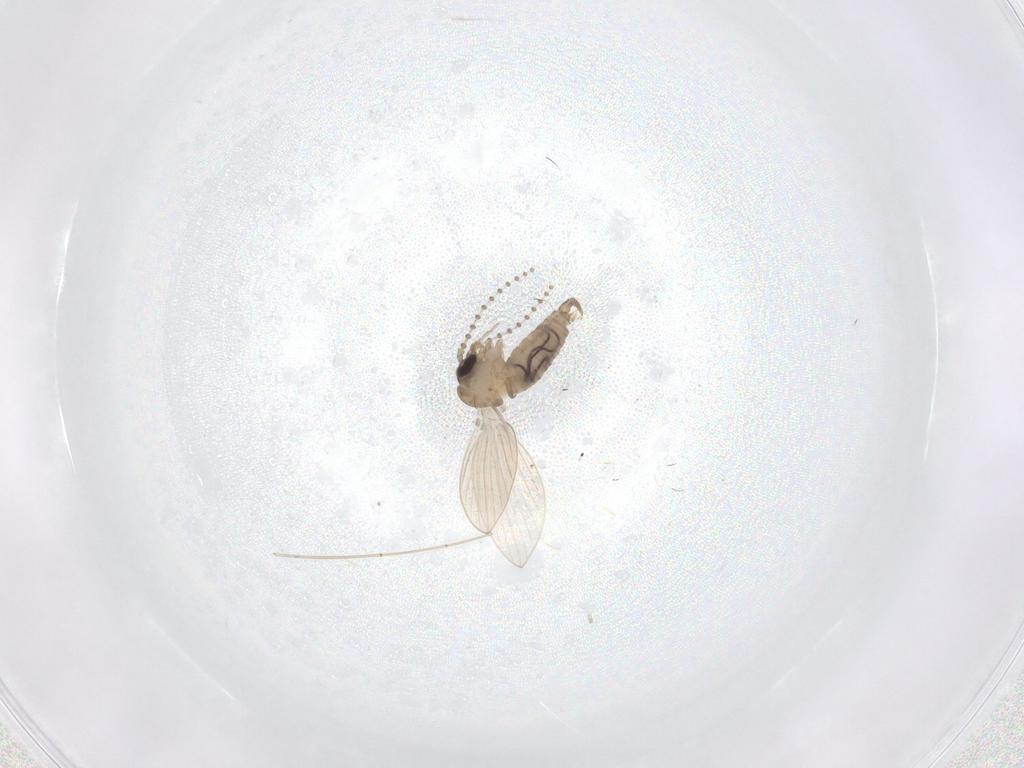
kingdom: Animalia
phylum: Arthropoda
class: Insecta
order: Diptera
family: Psychodidae
